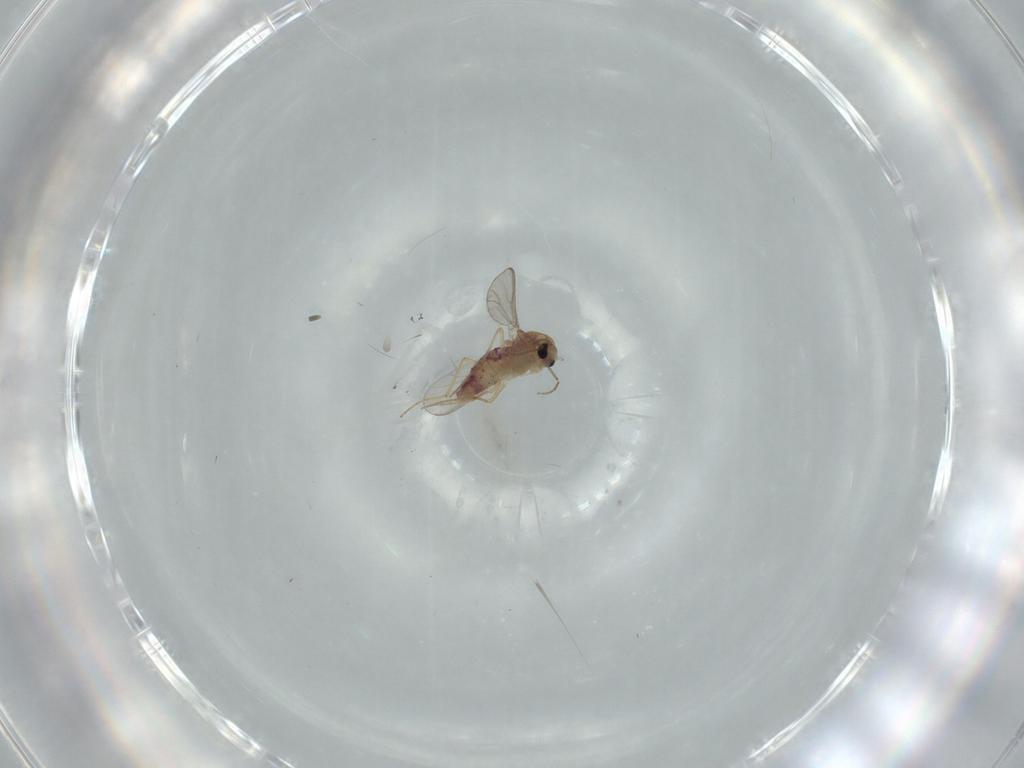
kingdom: Animalia
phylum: Arthropoda
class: Insecta
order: Diptera
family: Chironomidae
